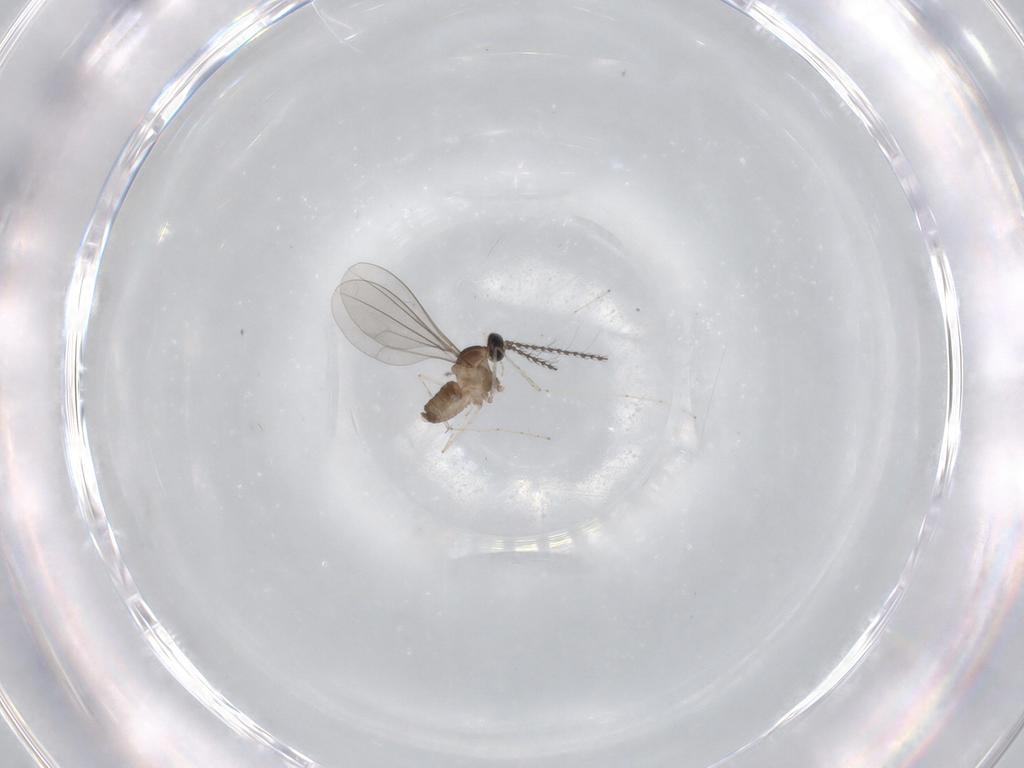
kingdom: Animalia
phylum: Arthropoda
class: Insecta
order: Diptera
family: Cecidomyiidae
